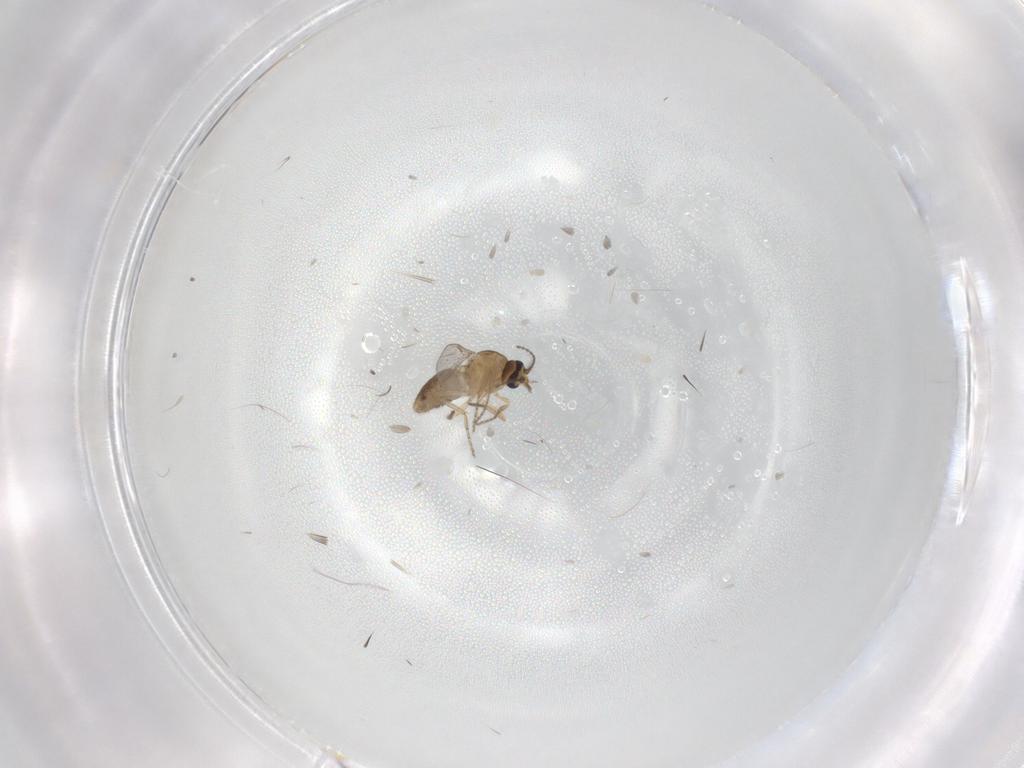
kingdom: Animalia
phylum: Arthropoda
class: Insecta
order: Diptera
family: Ceratopogonidae
